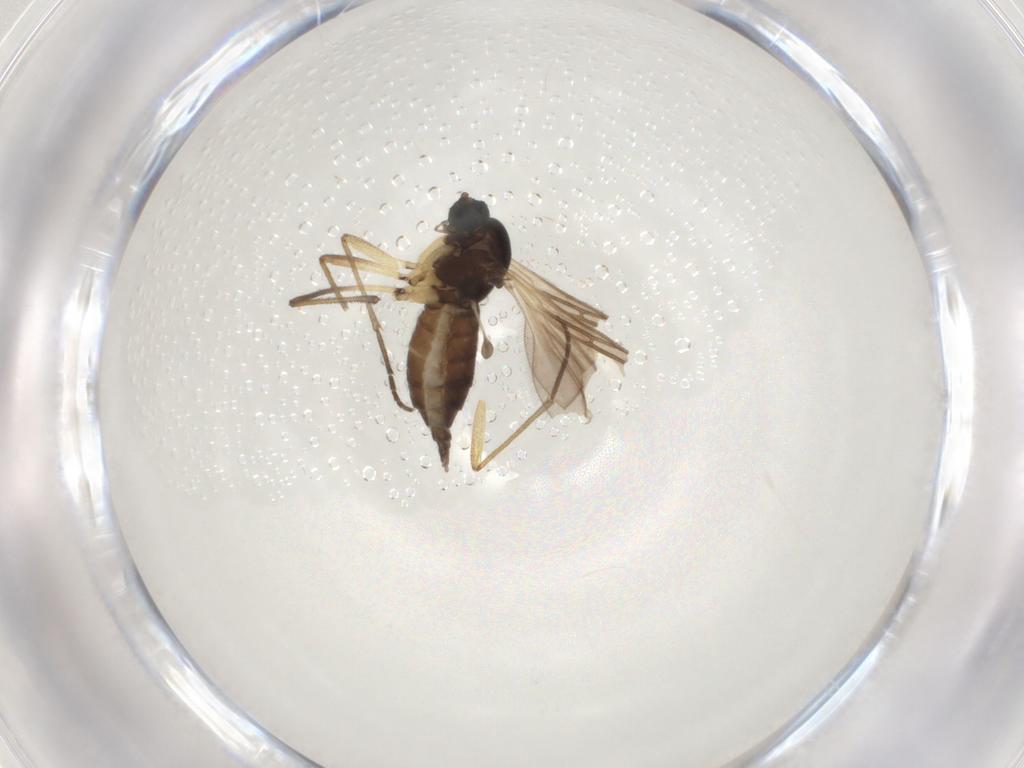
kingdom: Animalia
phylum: Arthropoda
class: Insecta
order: Diptera
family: Sciaridae
